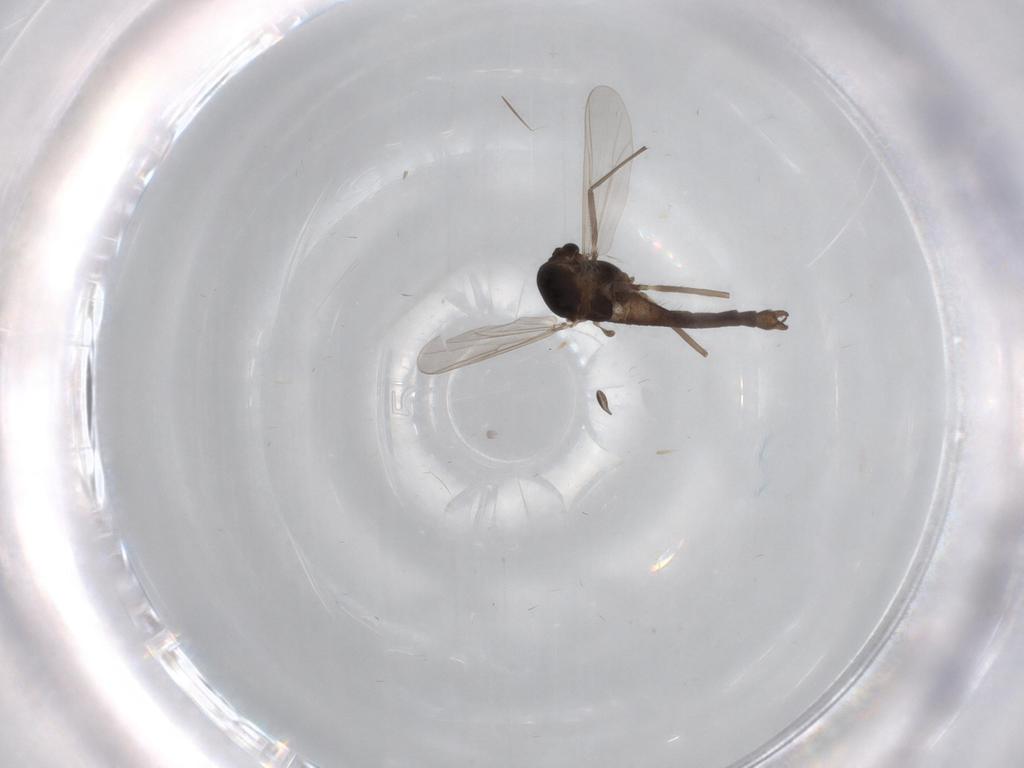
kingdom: Animalia
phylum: Arthropoda
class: Insecta
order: Diptera
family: Chironomidae
